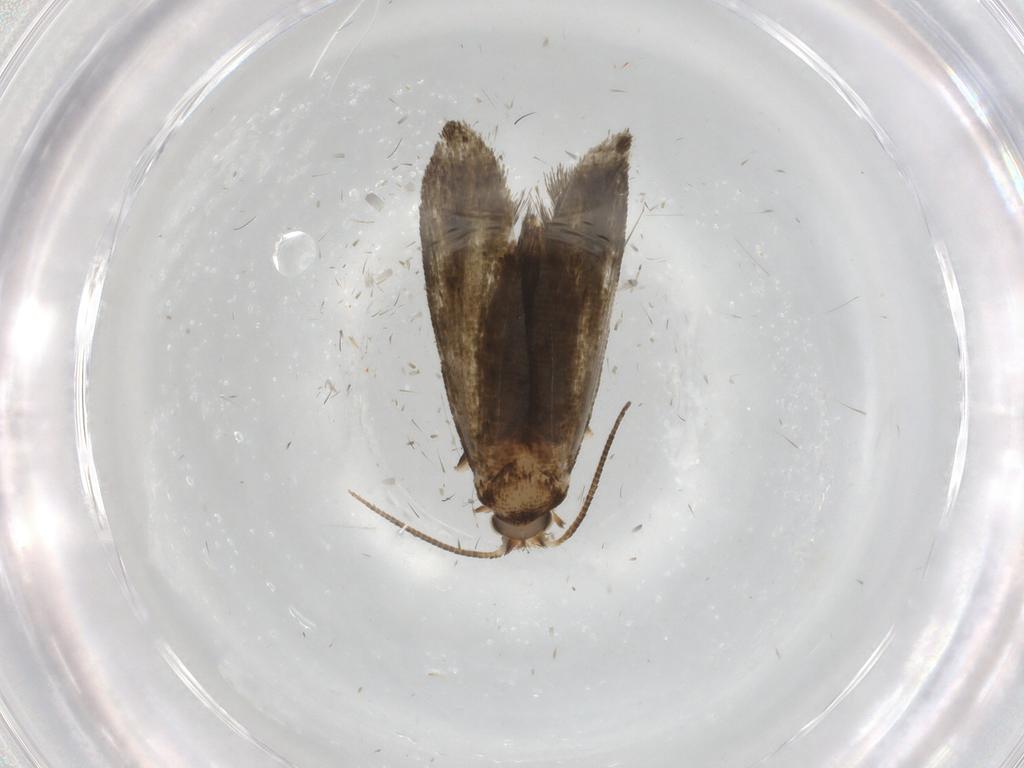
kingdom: Animalia
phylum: Arthropoda
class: Insecta
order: Lepidoptera
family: Crambidae
